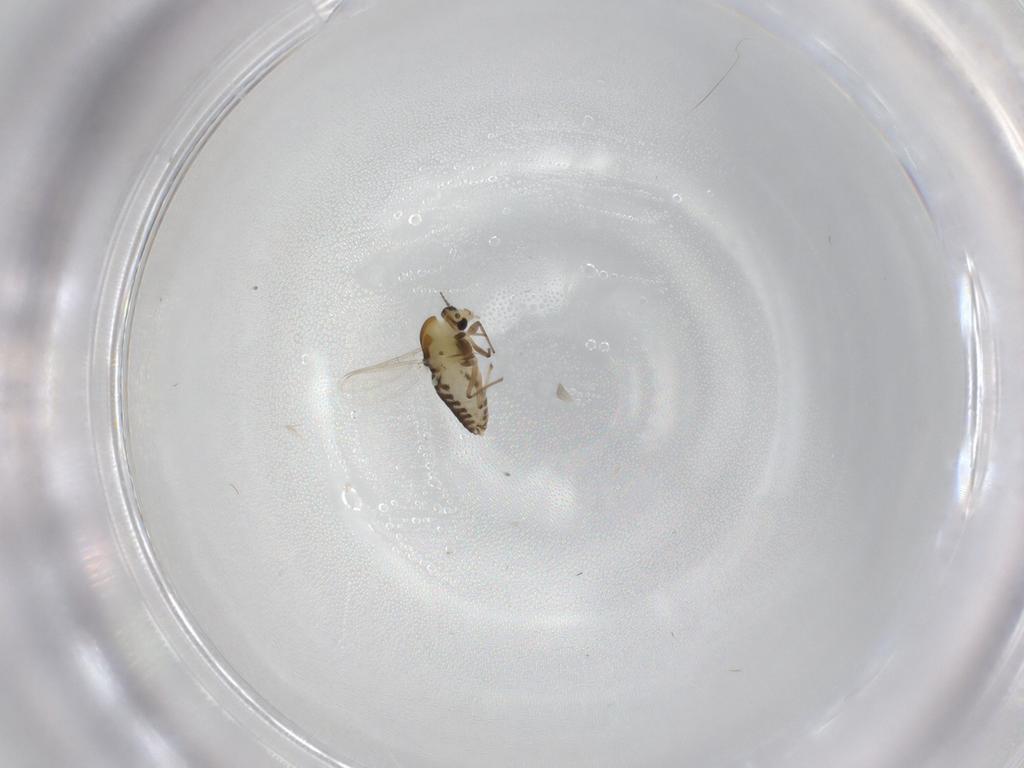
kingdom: Animalia
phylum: Arthropoda
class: Insecta
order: Diptera
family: Chironomidae
